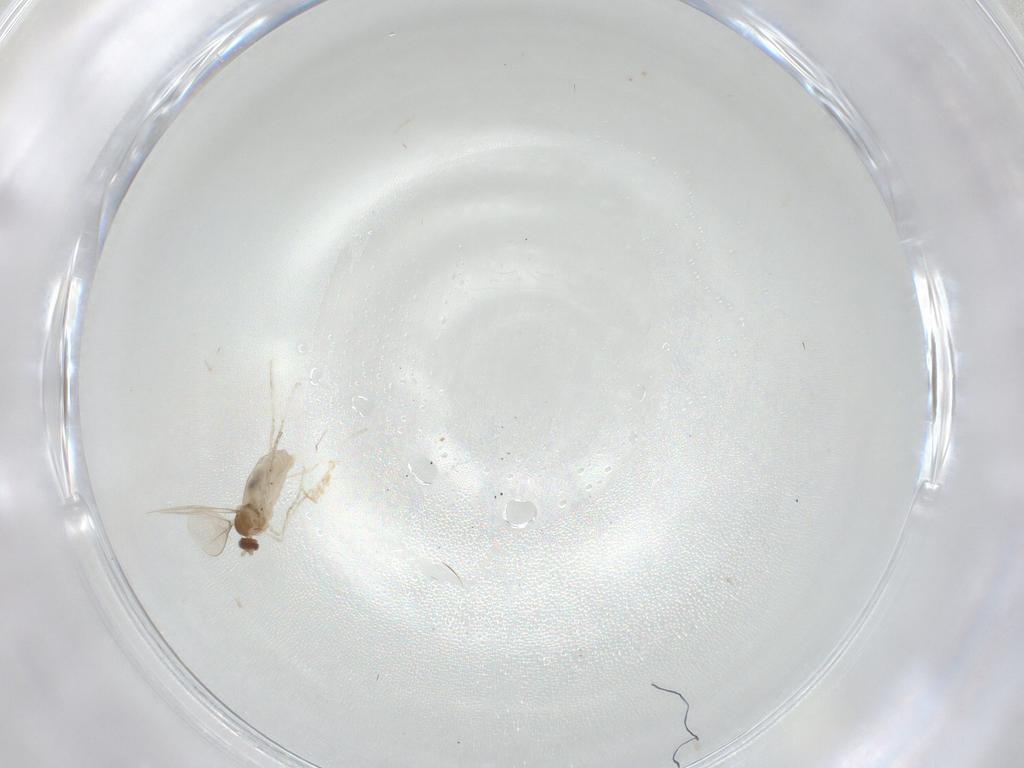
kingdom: Animalia
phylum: Arthropoda
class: Insecta
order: Diptera
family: Cecidomyiidae
